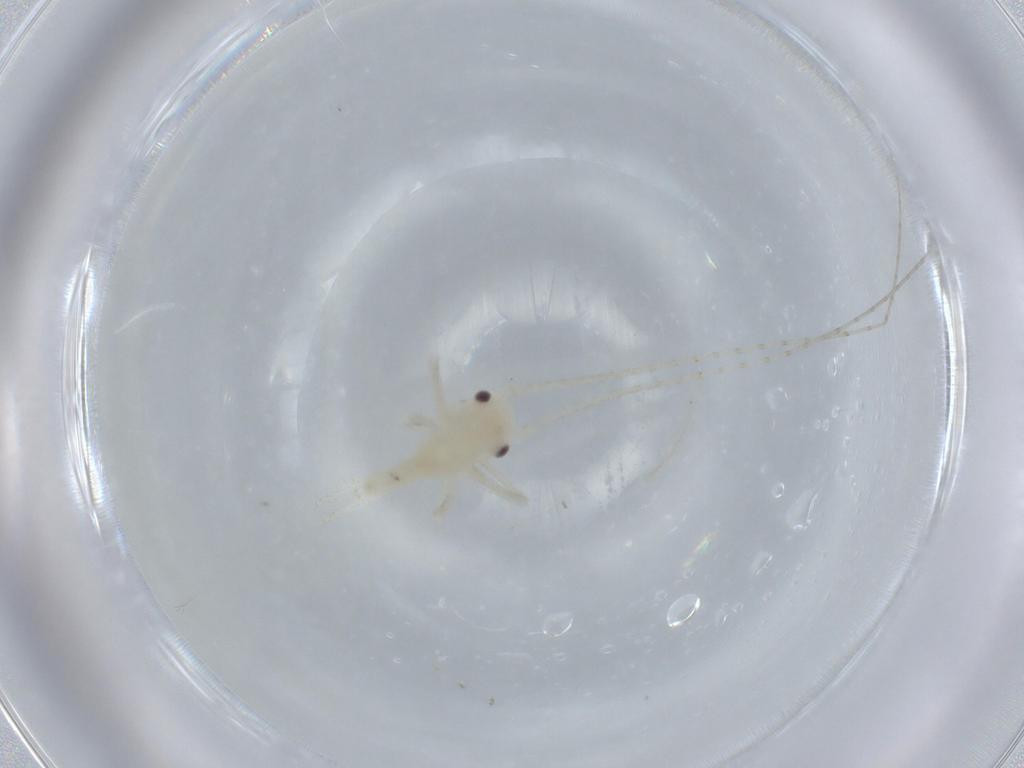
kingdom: Animalia
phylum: Arthropoda
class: Insecta
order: Orthoptera
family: Trigonidiidae
